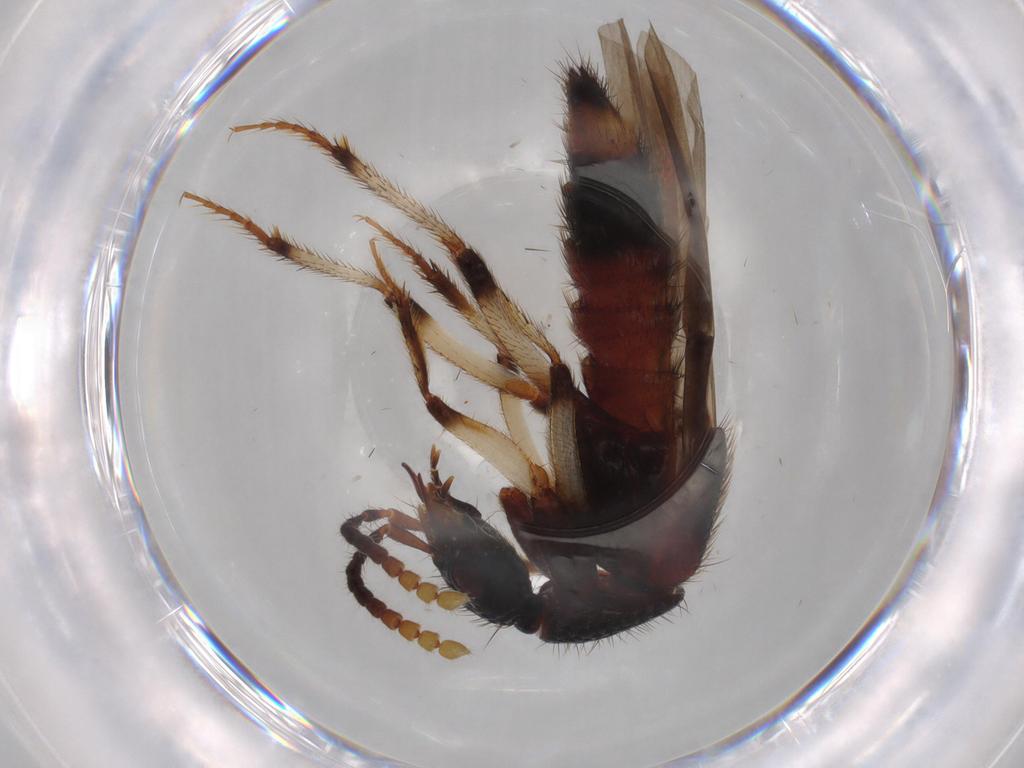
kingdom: Animalia
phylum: Arthropoda
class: Insecta
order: Coleoptera
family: Staphylinidae
